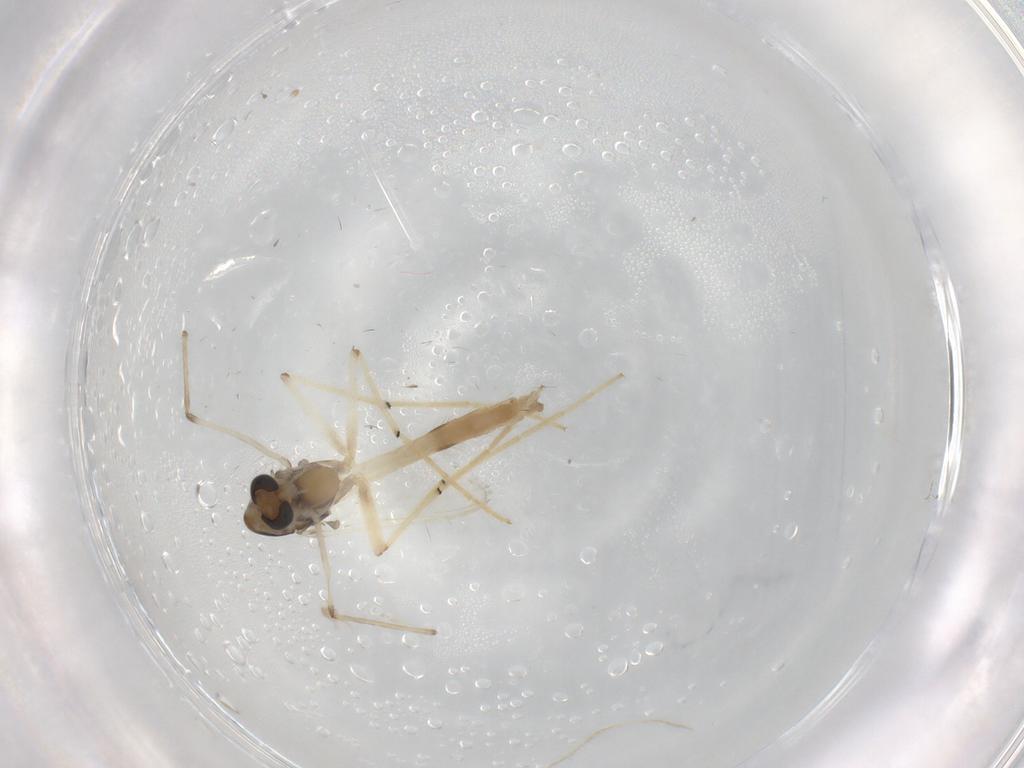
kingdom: Animalia
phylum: Arthropoda
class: Insecta
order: Diptera
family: Chironomidae
